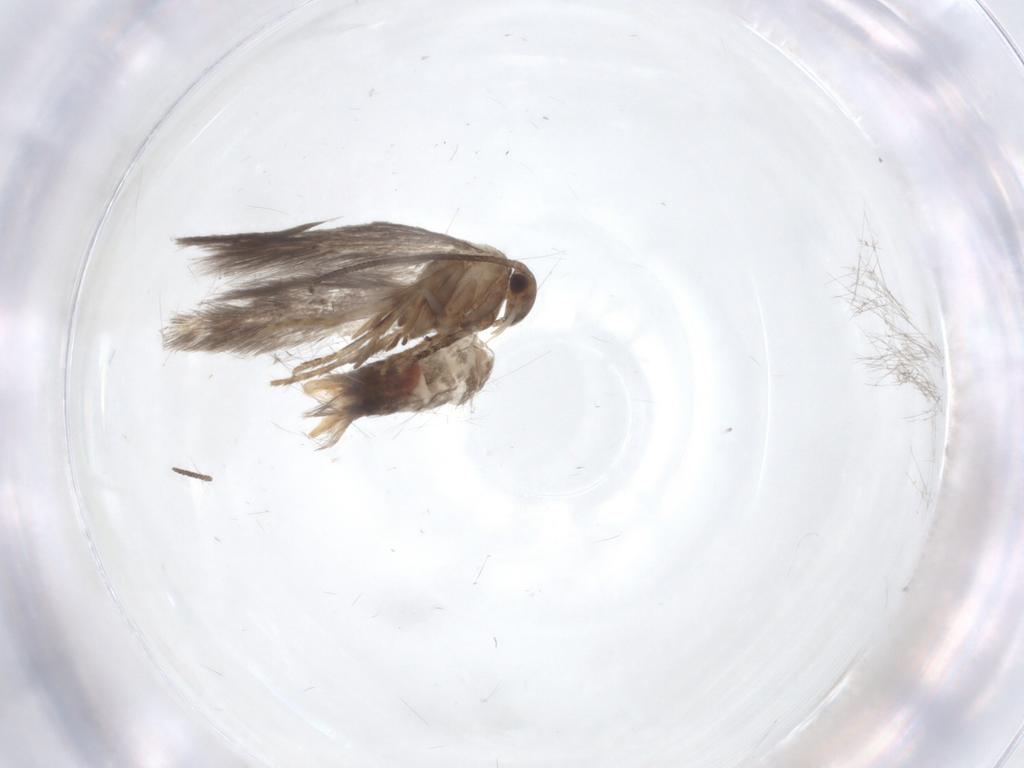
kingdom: Animalia
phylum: Arthropoda
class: Insecta
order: Lepidoptera
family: Elachistidae
